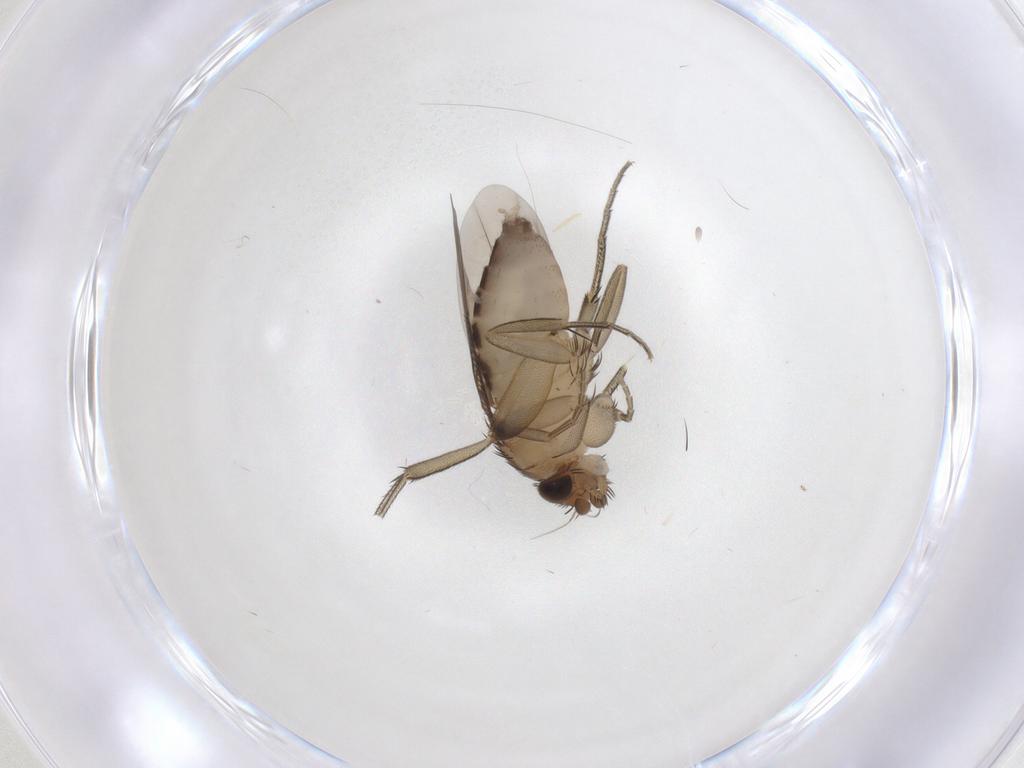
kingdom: Animalia
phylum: Arthropoda
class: Insecta
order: Diptera
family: Phoridae
